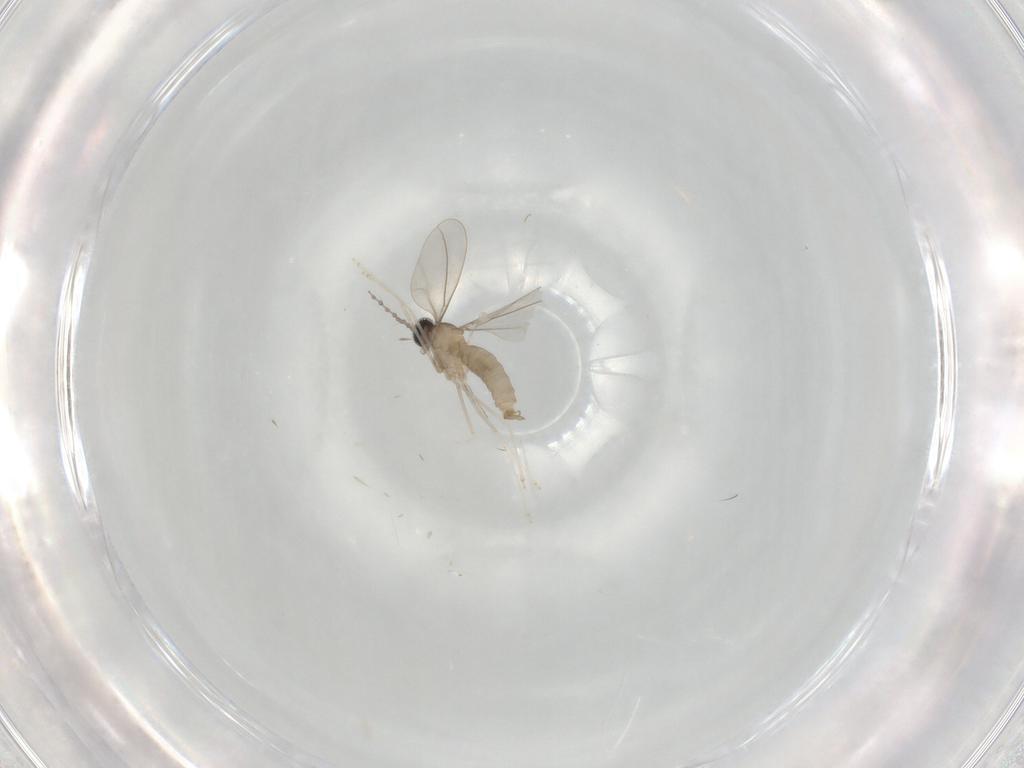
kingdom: Animalia
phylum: Arthropoda
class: Insecta
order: Diptera
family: Cecidomyiidae
